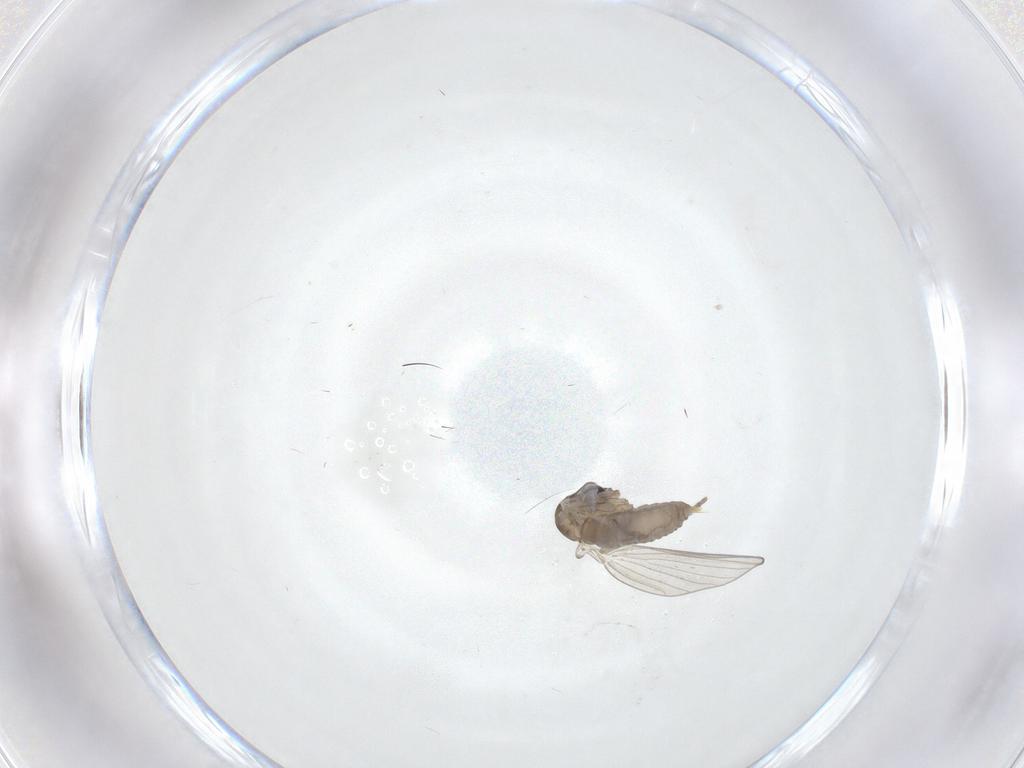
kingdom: Animalia
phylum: Arthropoda
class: Insecta
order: Diptera
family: Psychodidae
